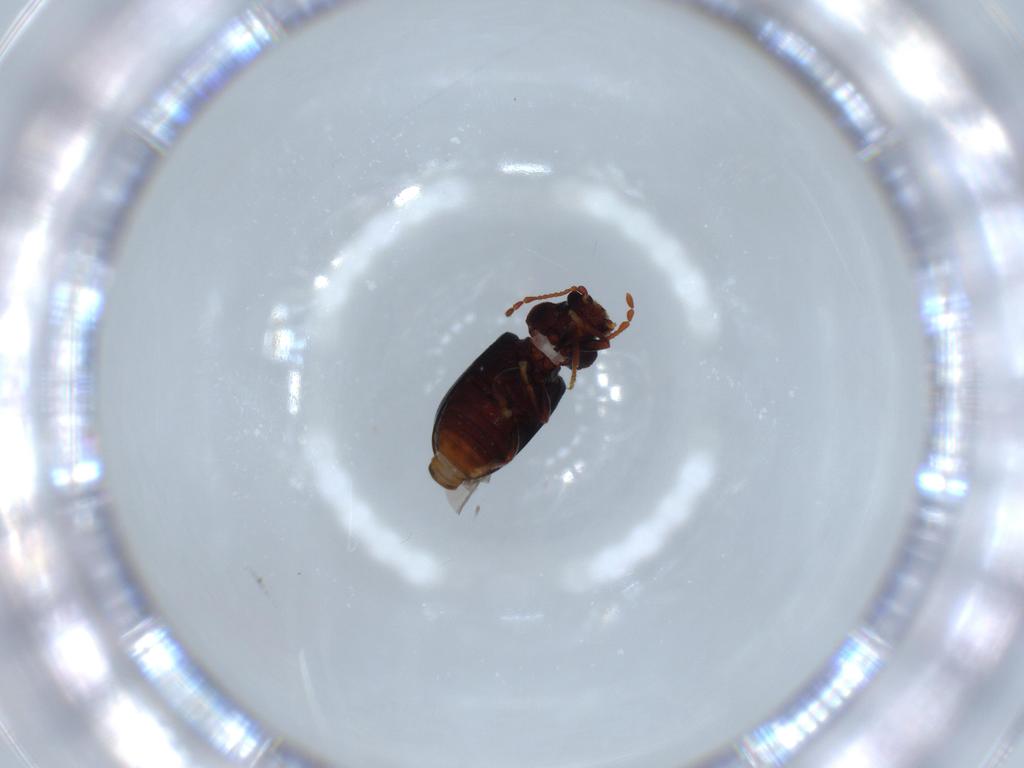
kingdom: Animalia
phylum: Arthropoda
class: Insecta
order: Coleoptera
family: Ptinidae
